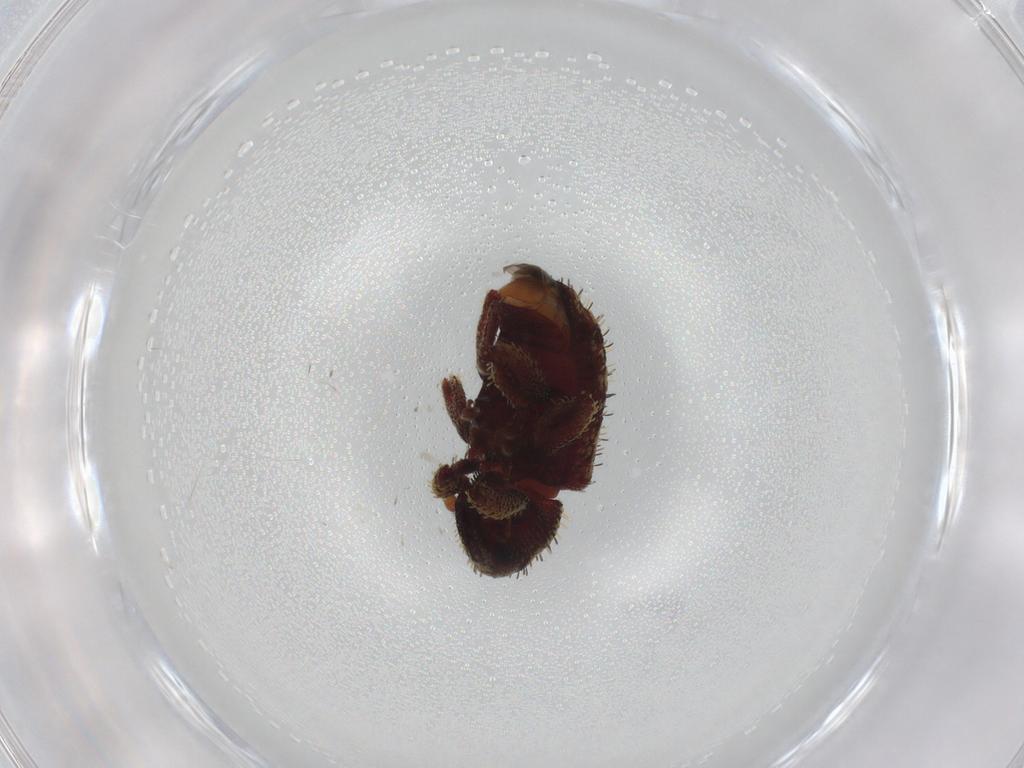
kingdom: Animalia
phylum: Arthropoda
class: Insecta
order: Coleoptera
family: Curculionidae
